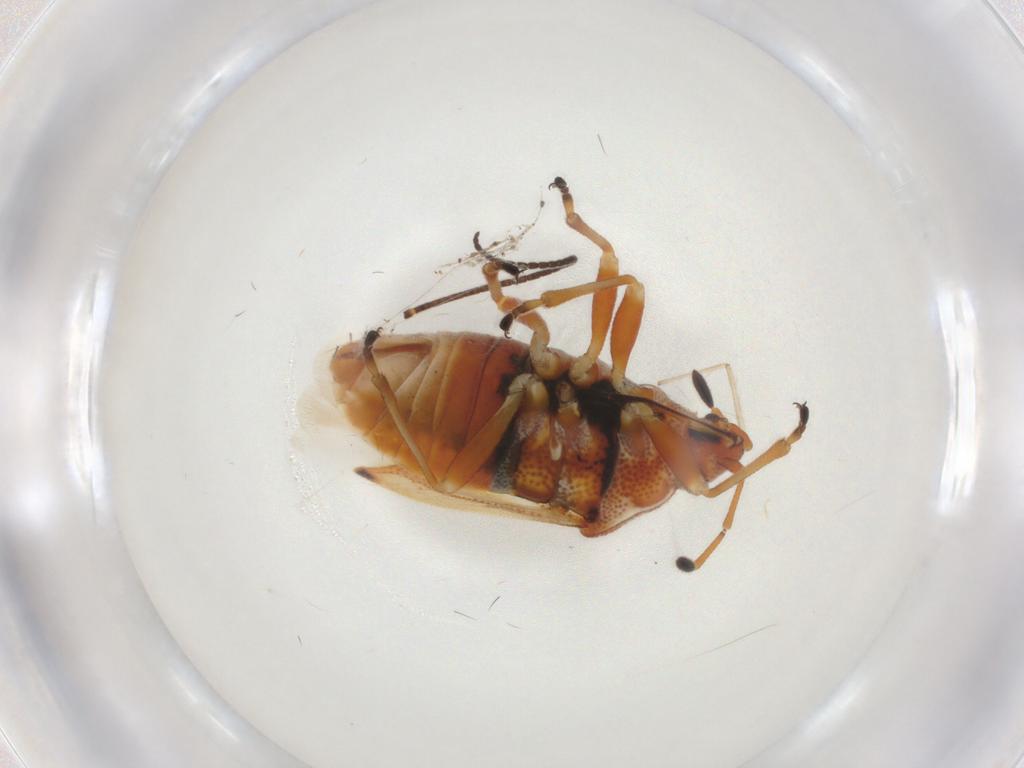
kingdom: Animalia
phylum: Arthropoda
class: Insecta
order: Hemiptera
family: Lygaeidae
